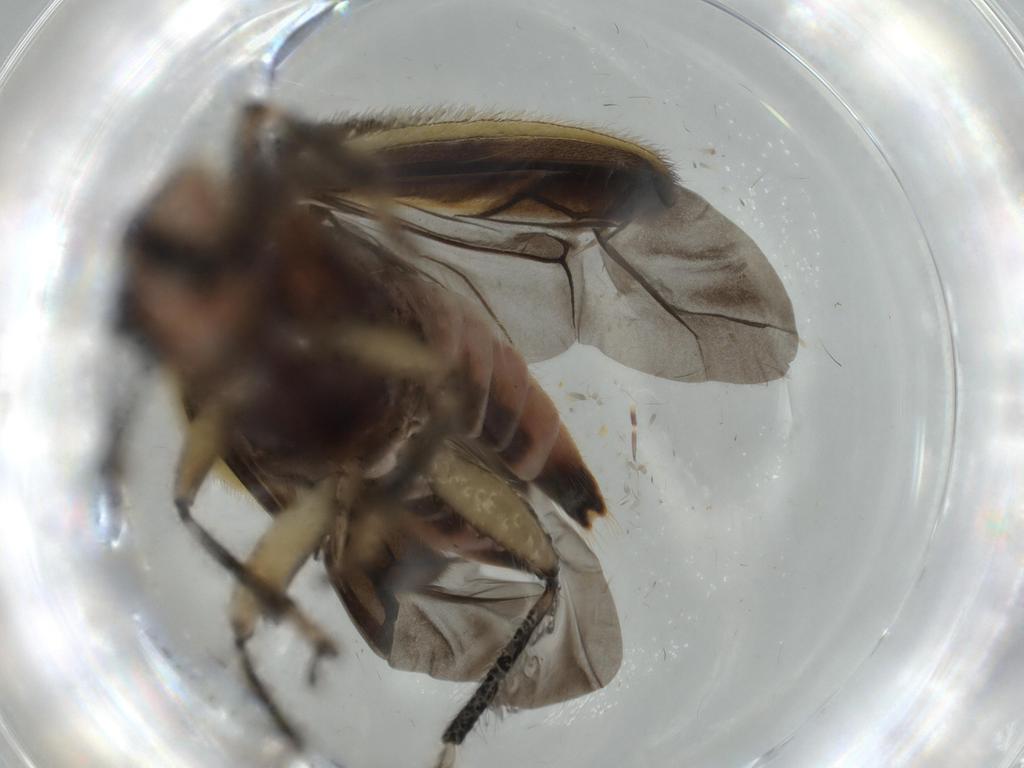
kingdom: Animalia
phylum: Arthropoda
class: Insecta
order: Coleoptera
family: Cleridae
